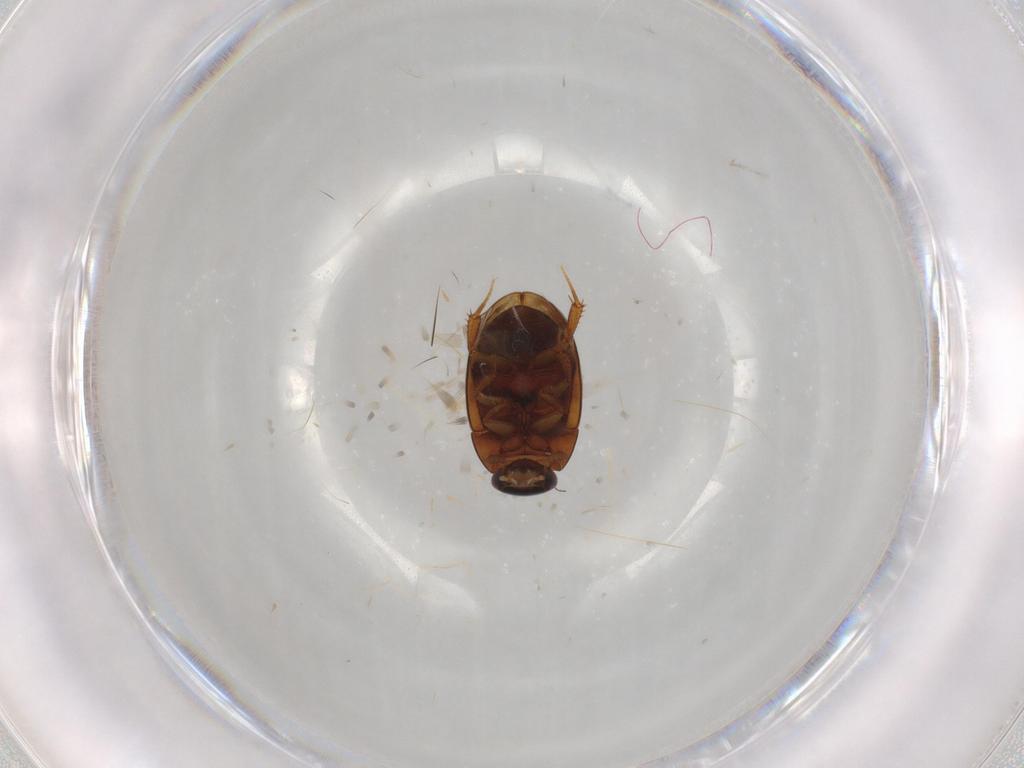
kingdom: Animalia
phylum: Arthropoda
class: Insecta
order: Coleoptera
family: Hydrophilidae
